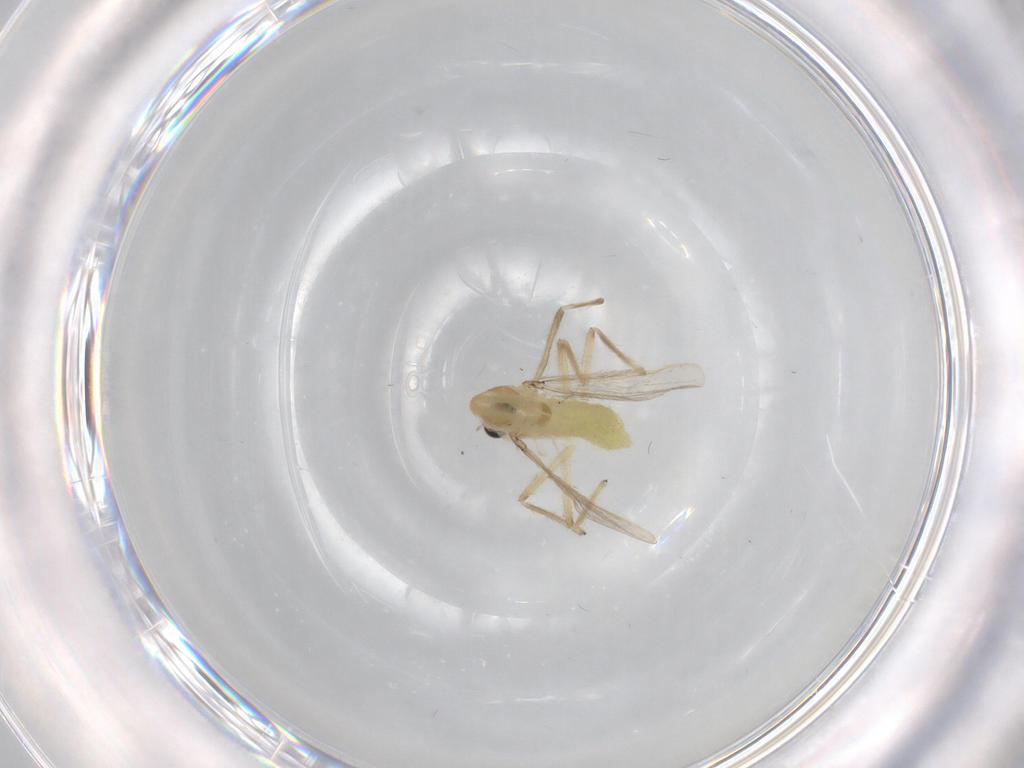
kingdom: Animalia
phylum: Arthropoda
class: Insecta
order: Diptera
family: Chironomidae
